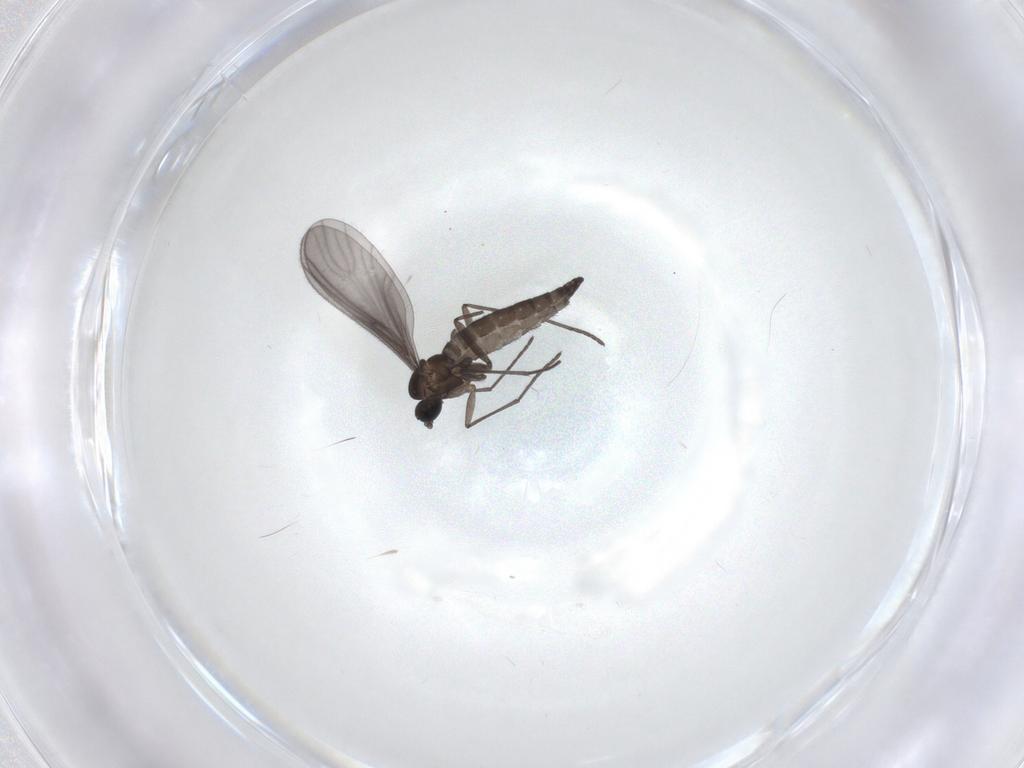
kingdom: Animalia
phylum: Arthropoda
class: Insecta
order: Diptera
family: Sciaridae
